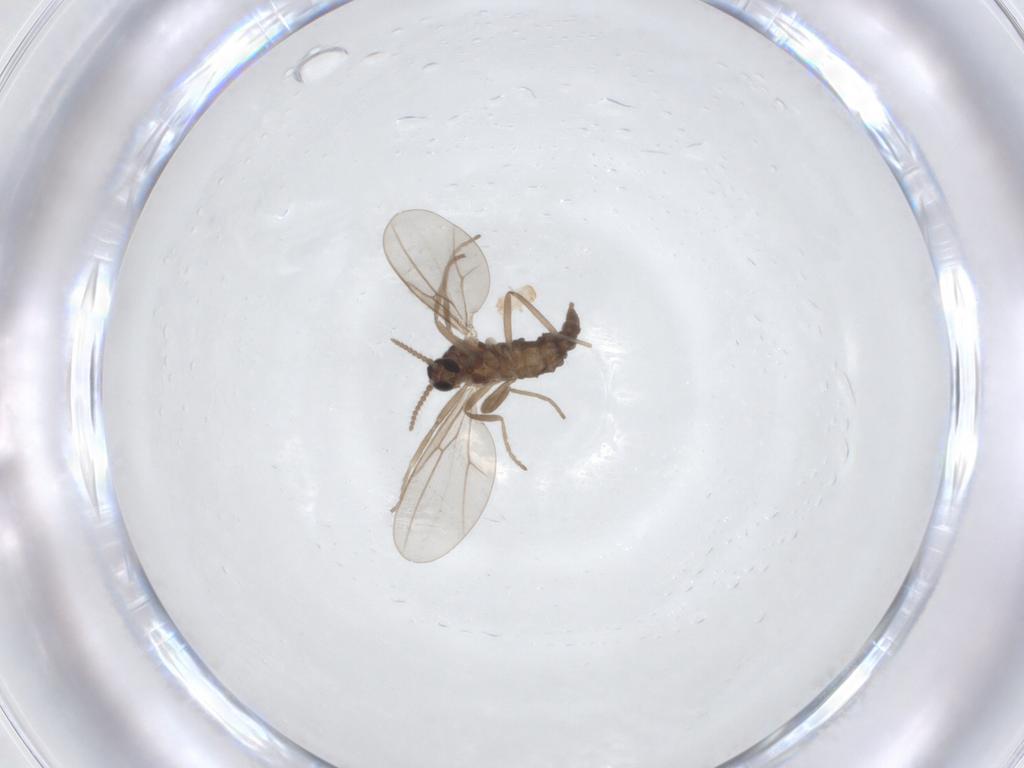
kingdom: Animalia
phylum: Arthropoda
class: Insecta
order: Diptera
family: Cecidomyiidae
